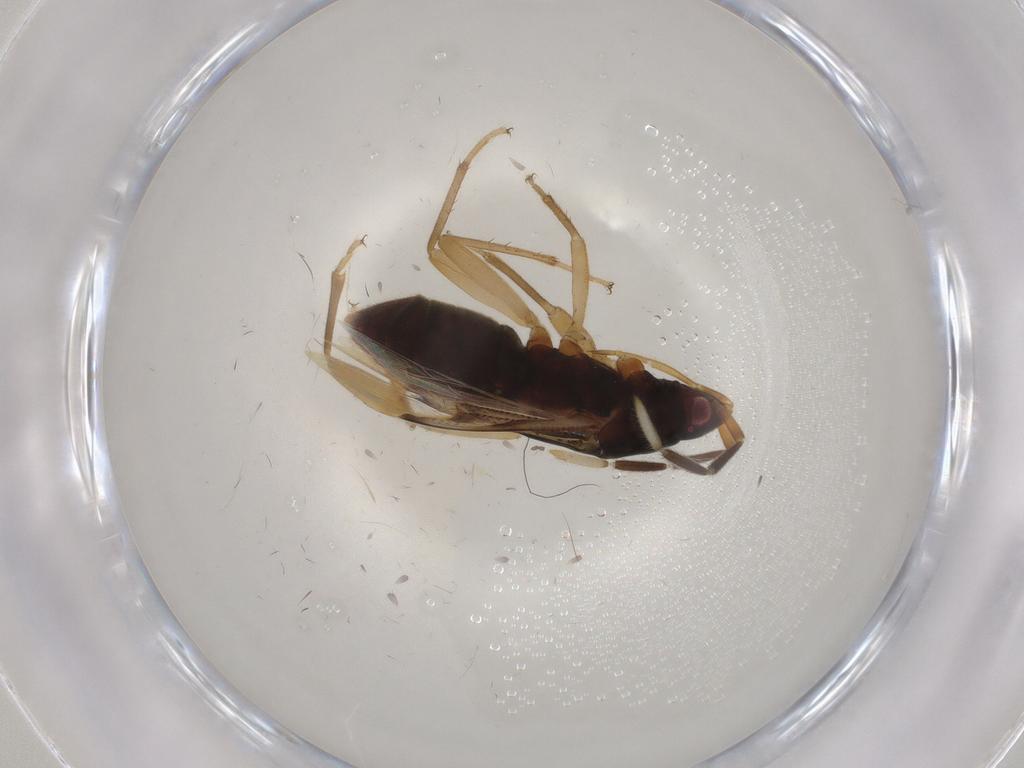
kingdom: Animalia
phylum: Arthropoda
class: Insecta
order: Hemiptera
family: Rhyparochromidae
